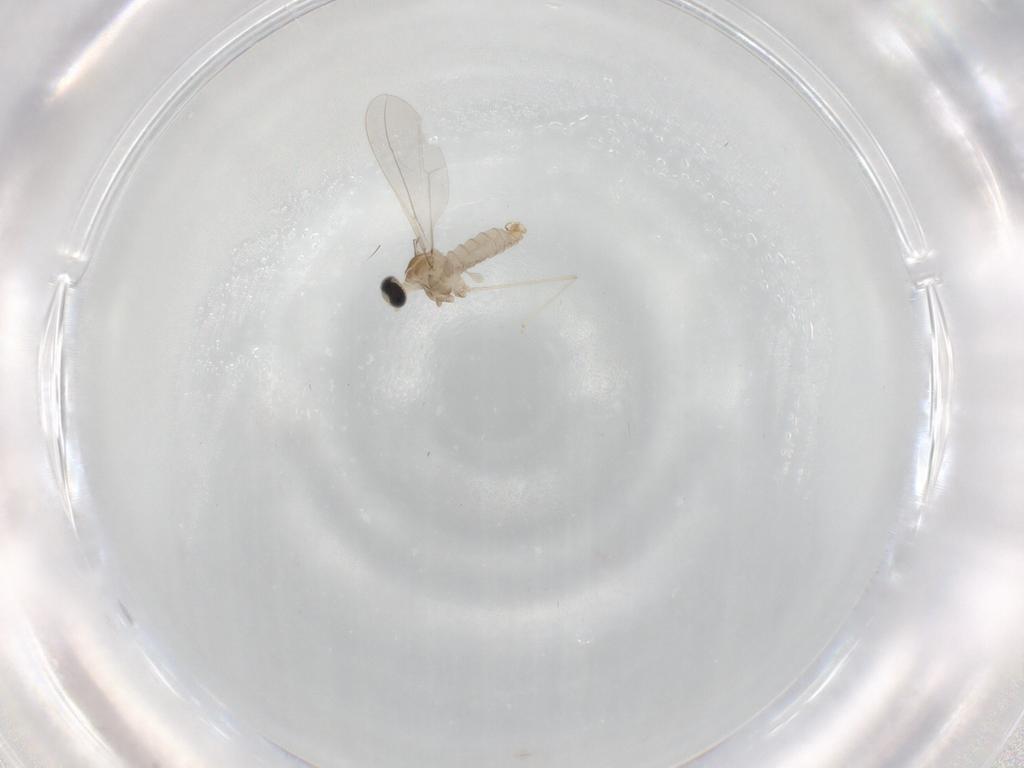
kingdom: Animalia
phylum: Arthropoda
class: Insecta
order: Diptera
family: Cecidomyiidae
